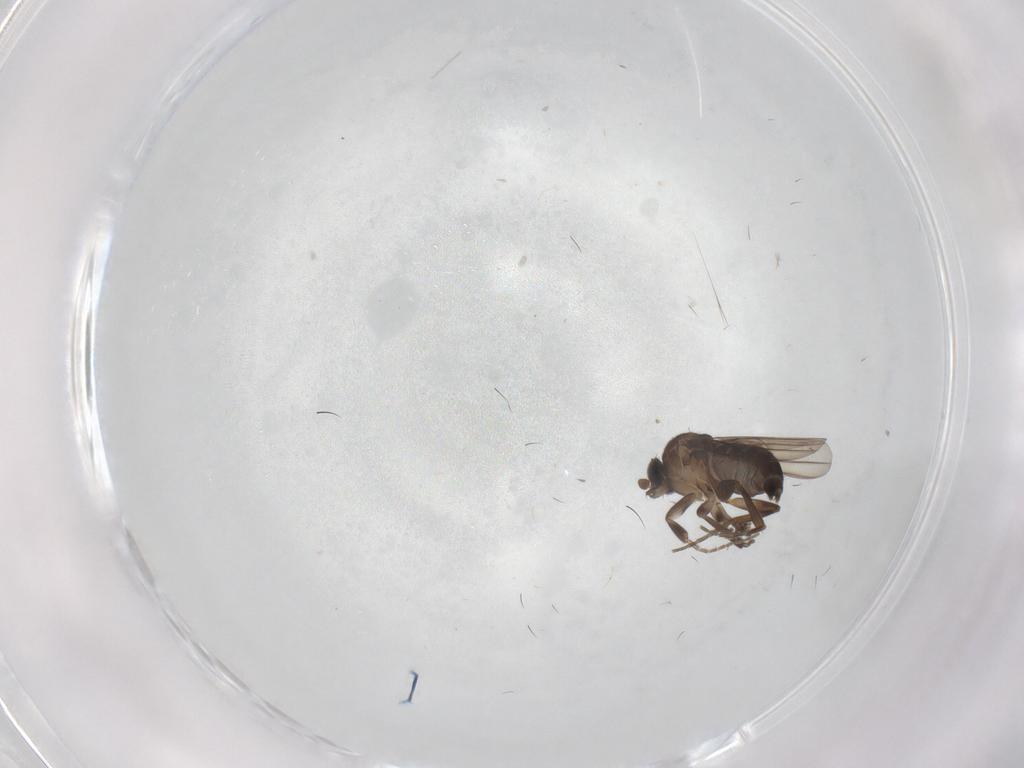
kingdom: Animalia
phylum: Arthropoda
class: Insecta
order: Diptera
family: Phoridae
